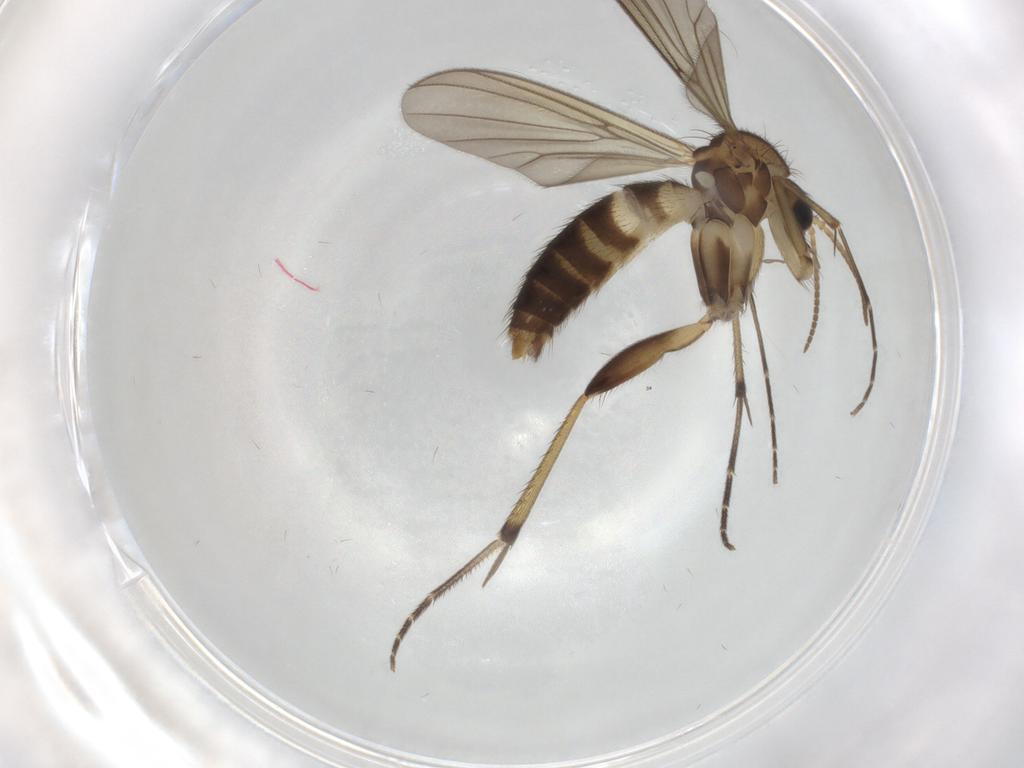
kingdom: Animalia
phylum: Arthropoda
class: Insecta
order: Diptera
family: Mycetophilidae
